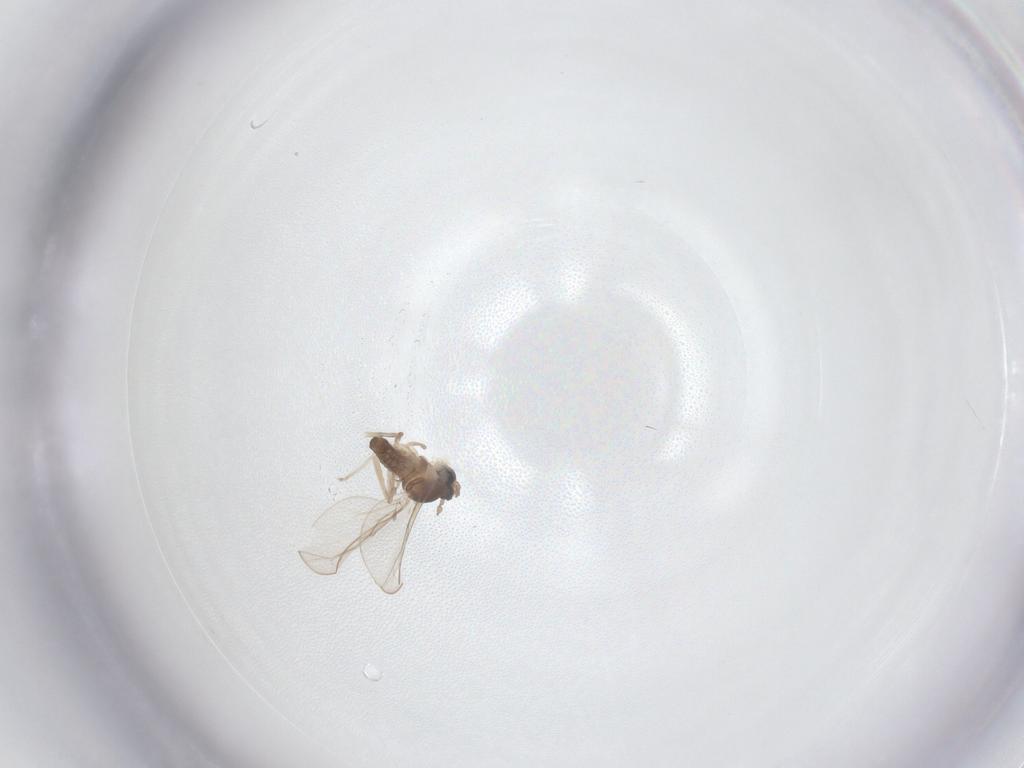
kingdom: Animalia
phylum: Arthropoda
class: Insecta
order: Diptera
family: Cecidomyiidae
